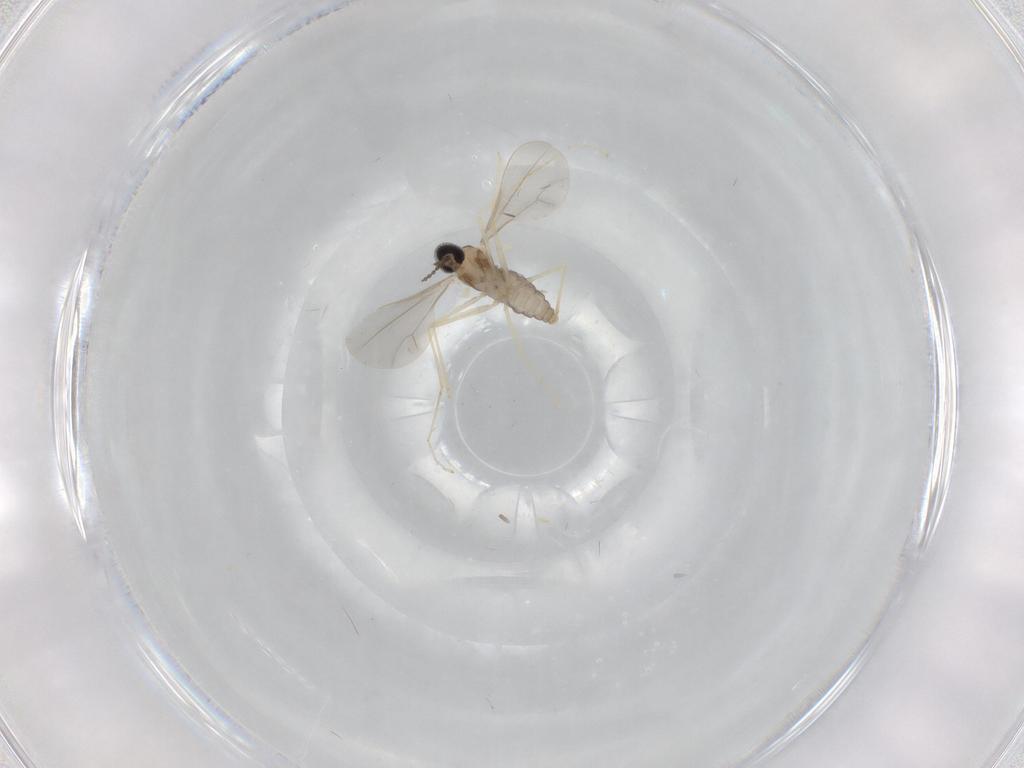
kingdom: Animalia
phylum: Arthropoda
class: Insecta
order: Diptera
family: Cecidomyiidae
